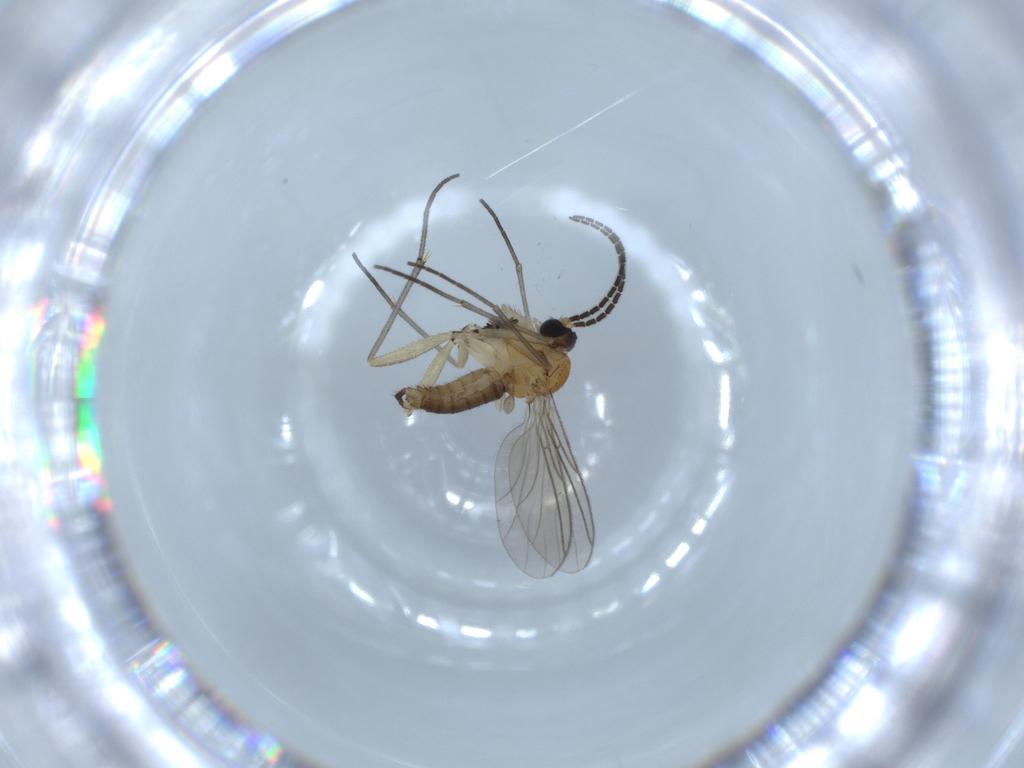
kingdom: Animalia
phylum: Arthropoda
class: Insecta
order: Diptera
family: Sciaridae
